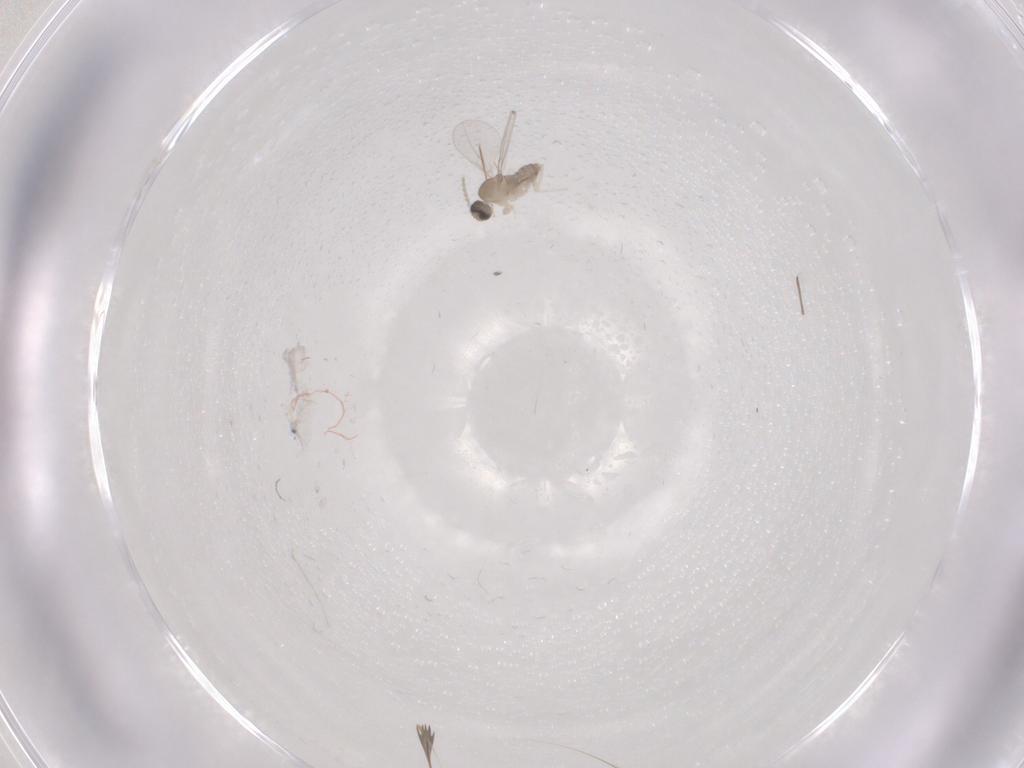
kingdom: Animalia
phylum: Arthropoda
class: Insecta
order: Diptera
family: Cecidomyiidae
